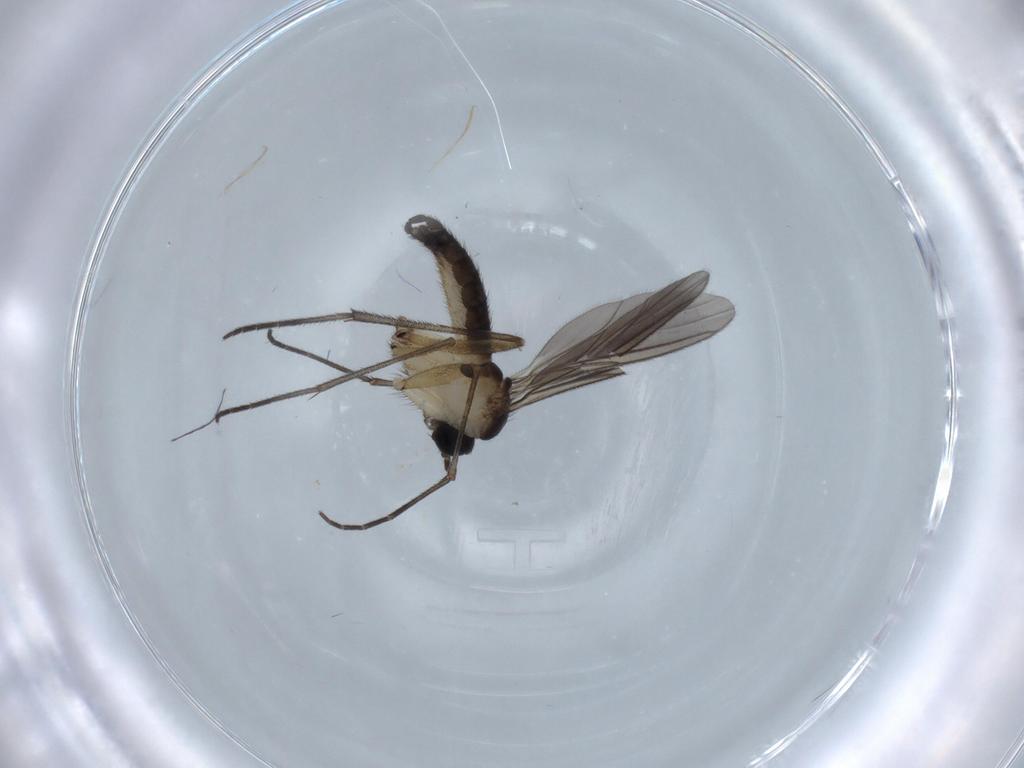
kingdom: Animalia
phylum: Arthropoda
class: Insecta
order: Diptera
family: Sciaridae
